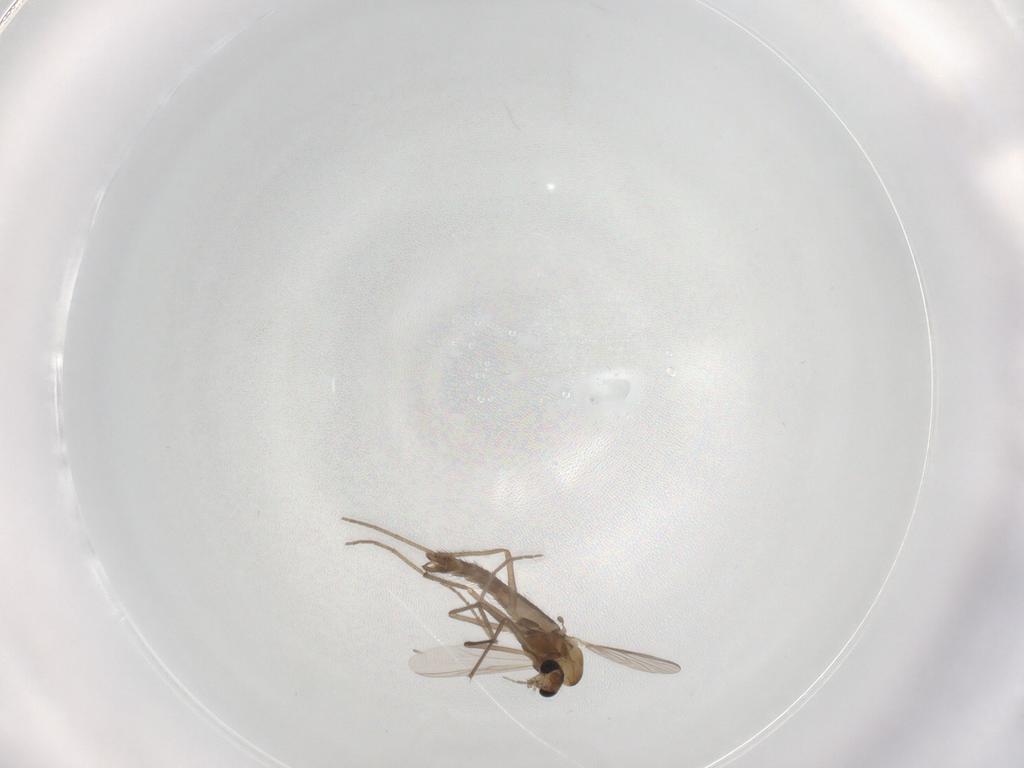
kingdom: Animalia
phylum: Arthropoda
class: Insecta
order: Diptera
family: Chironomidae
